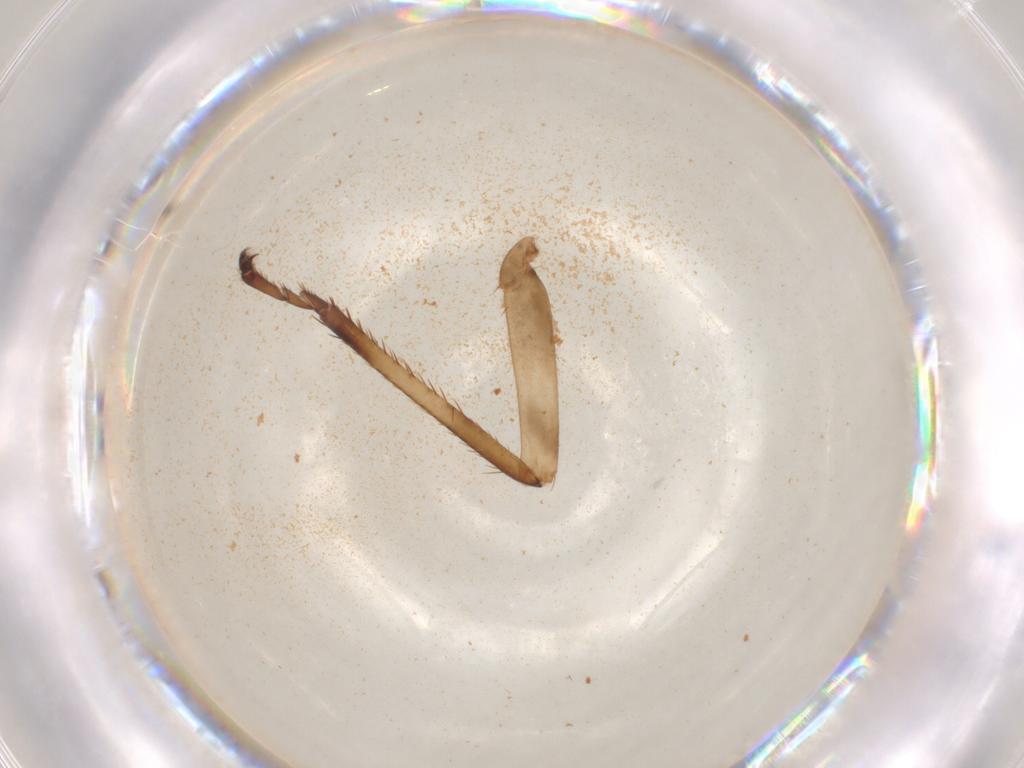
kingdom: Animalia
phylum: Arthropoda
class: Insecta
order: Hemiptera
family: Cicadellidae
